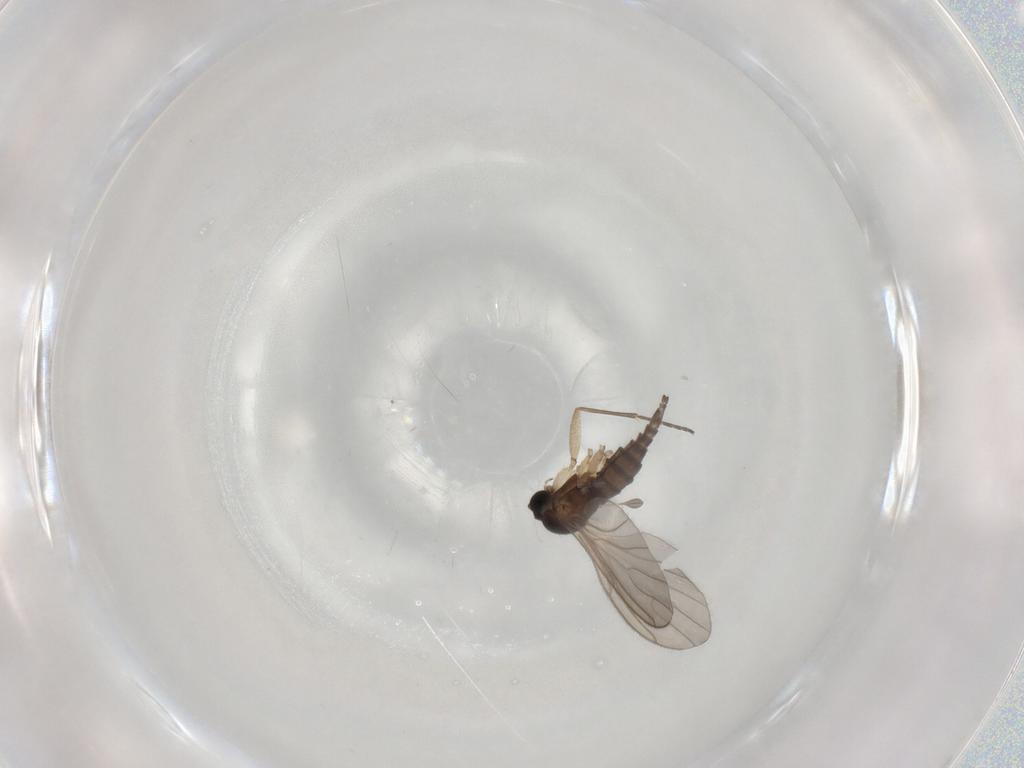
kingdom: Animalia
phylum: Arthropoda
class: Insecta
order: Diptera
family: Sciaridae
